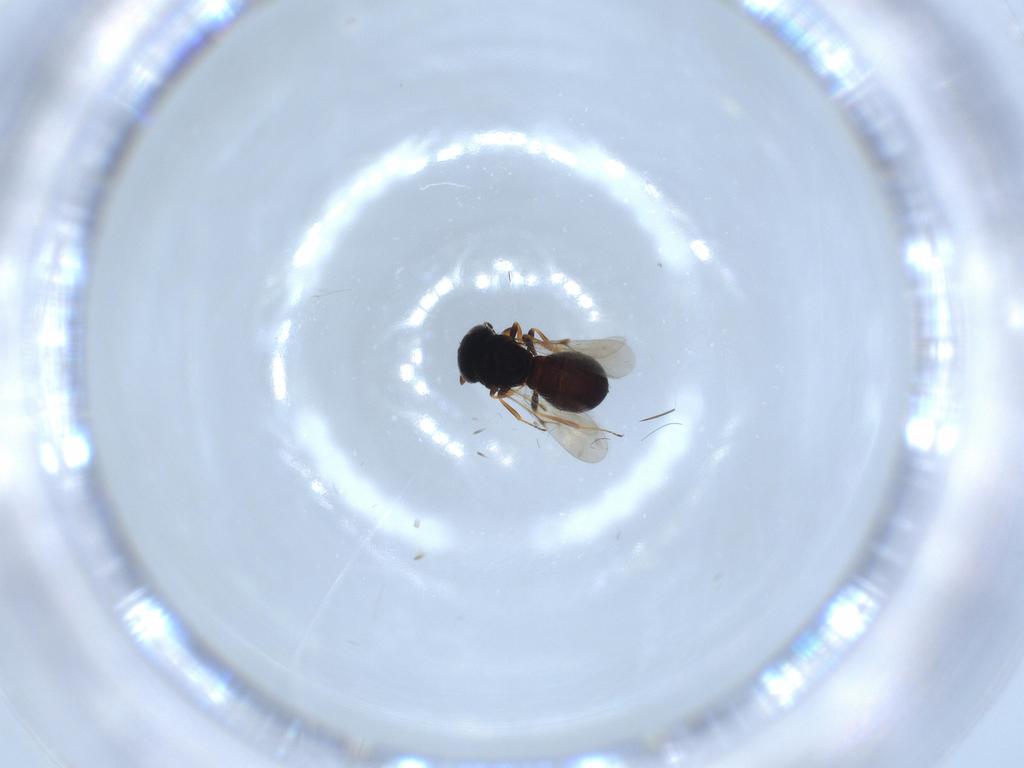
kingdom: Animalia
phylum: Arthropoda
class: Insecta
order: Hymenoptera
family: Scelionidae
